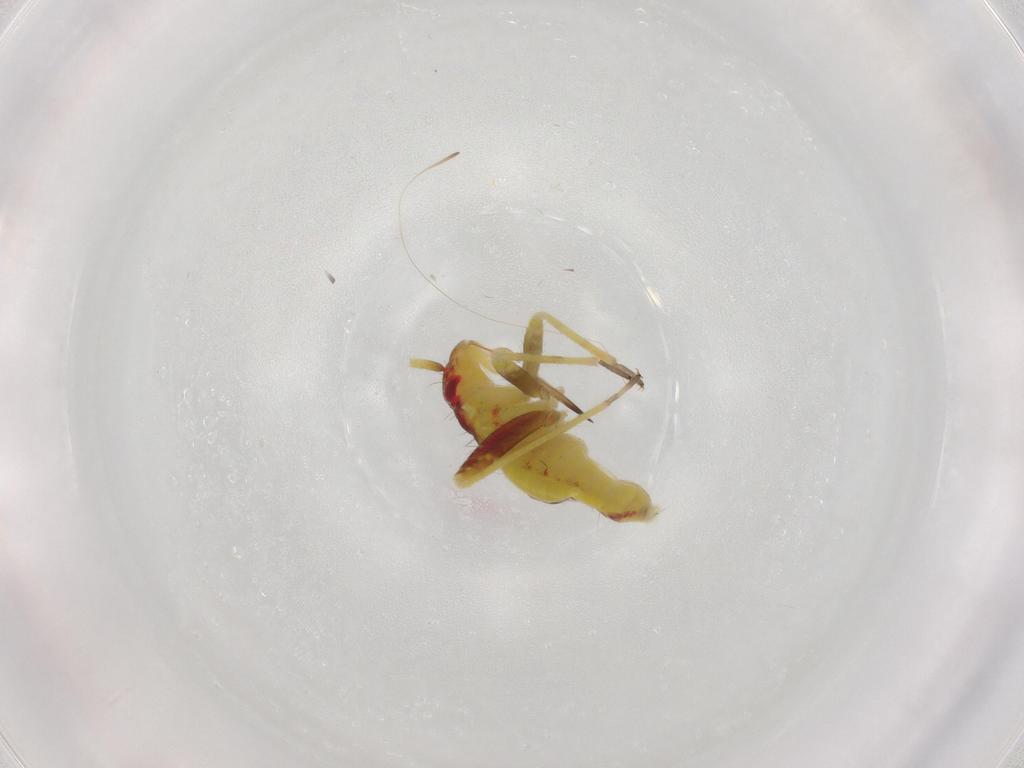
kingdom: Animalia
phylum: Arthropoda
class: Insecta
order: Hemiptera
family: Miridae
